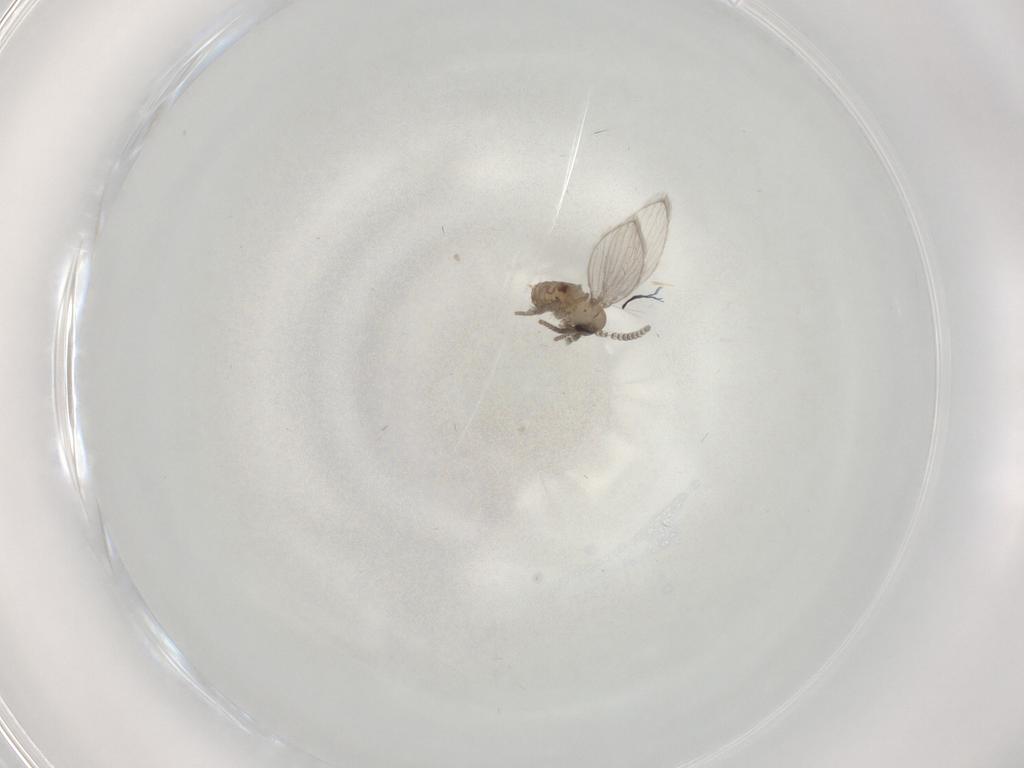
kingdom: Animalia
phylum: Arthropoda
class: Insecta
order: Diptera
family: Psychodidae
